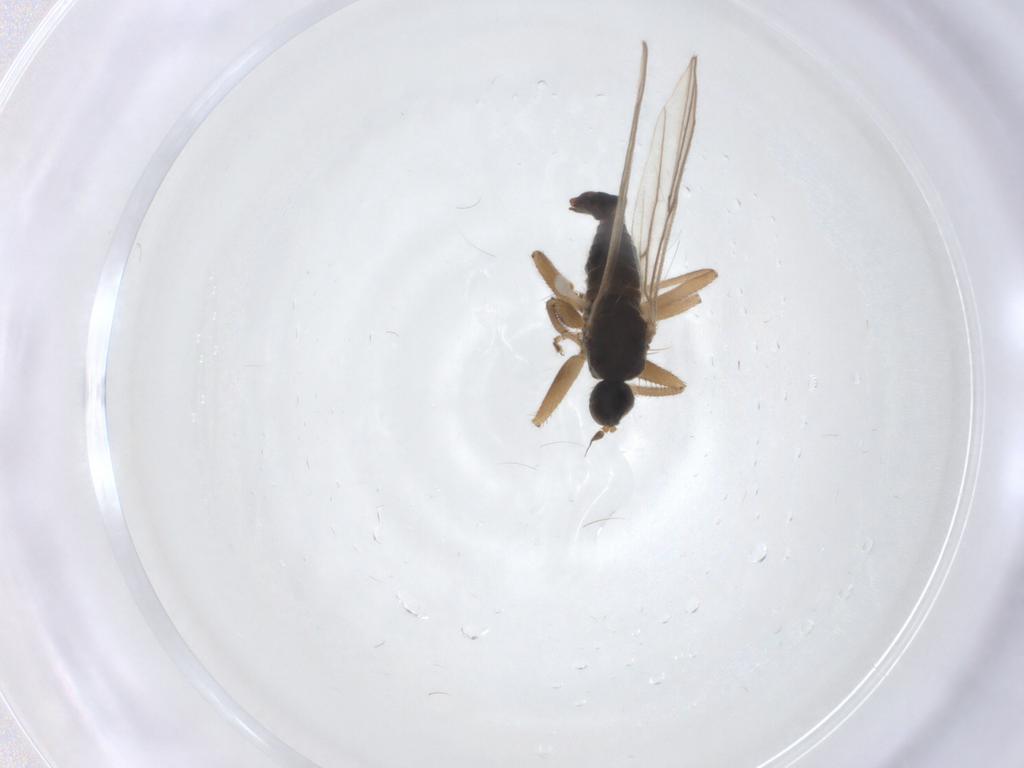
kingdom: Animalia
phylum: Arthropoda
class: Insecta
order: Diptera
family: Hybotidae
